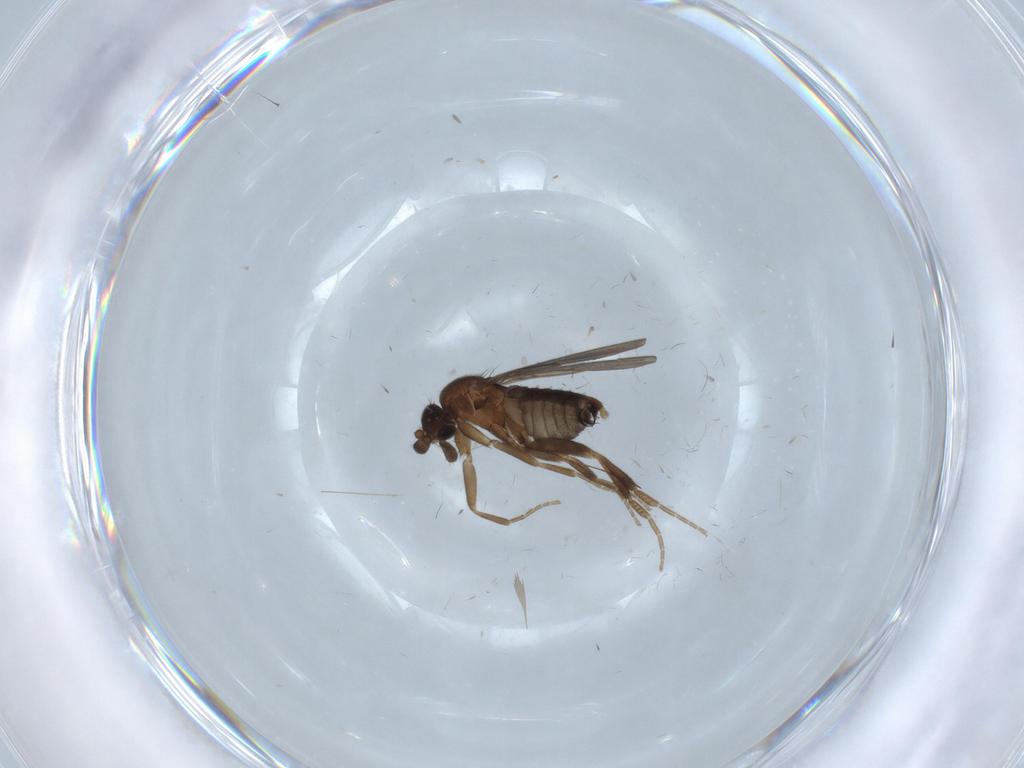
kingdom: Animalia
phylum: Arthropoda
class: Insecta
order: Diptera
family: Phoridae
